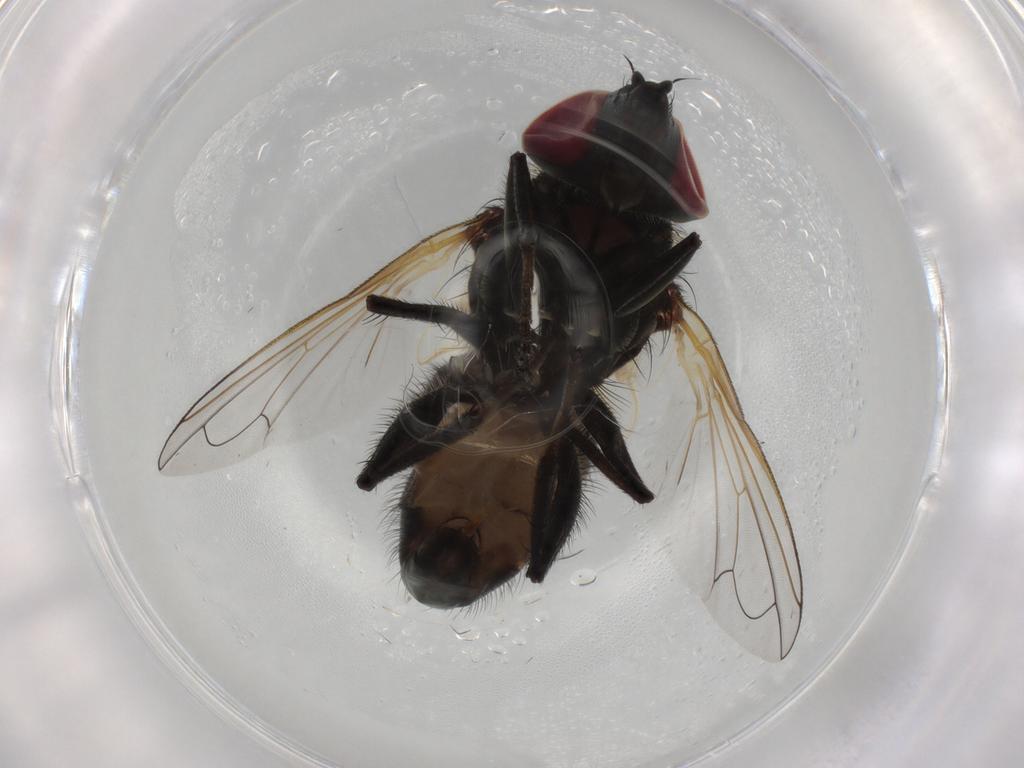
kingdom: Animalia
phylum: Arthropoda
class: Insecta
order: Diptera
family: Tachinidae
